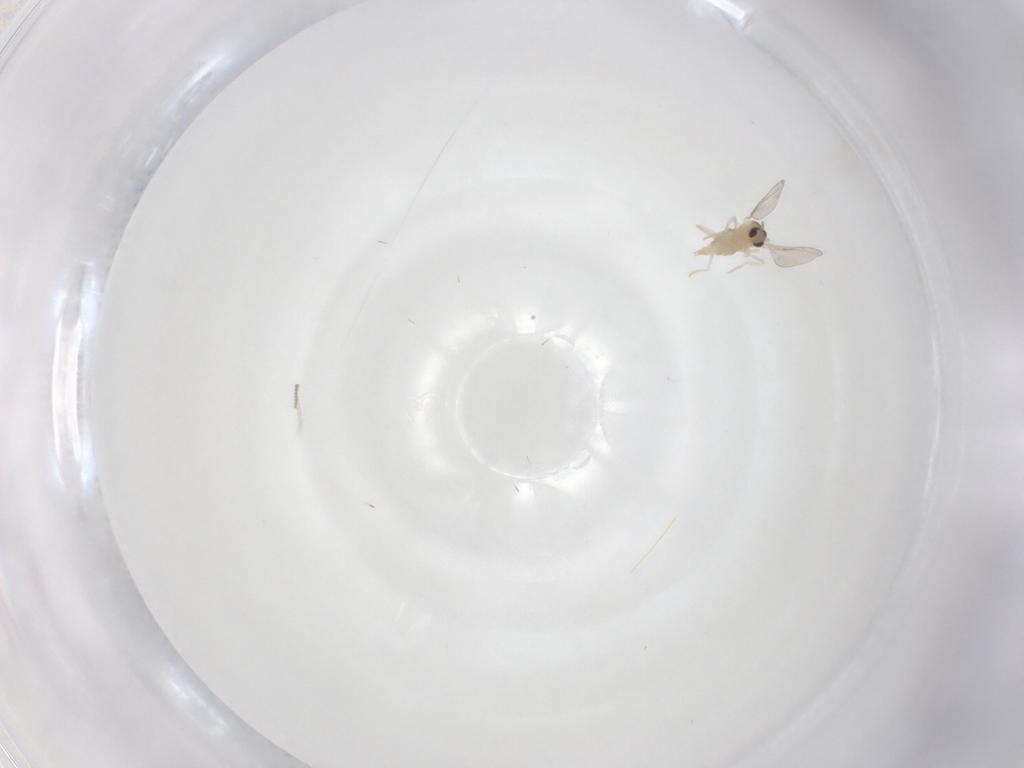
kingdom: Animalia
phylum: Arthropoda
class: Insecta
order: Diptera
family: Cecidomyiidae
